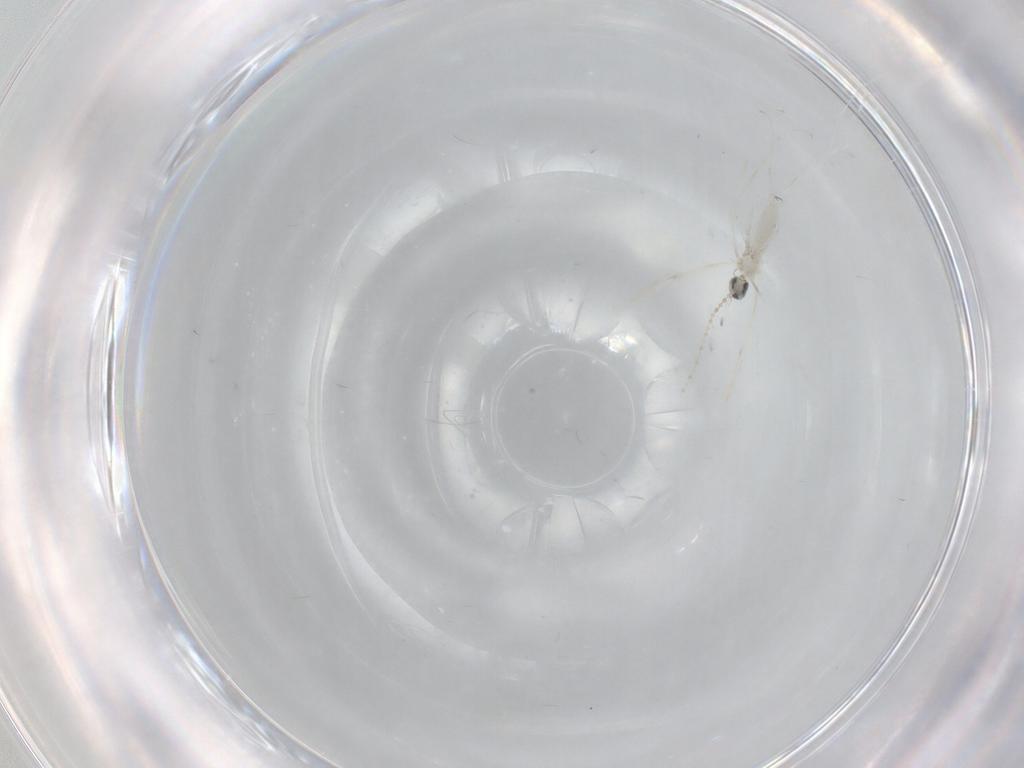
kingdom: Animalia
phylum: Arthropoda
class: Insecta
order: Diptera
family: Cecidomyiidae
